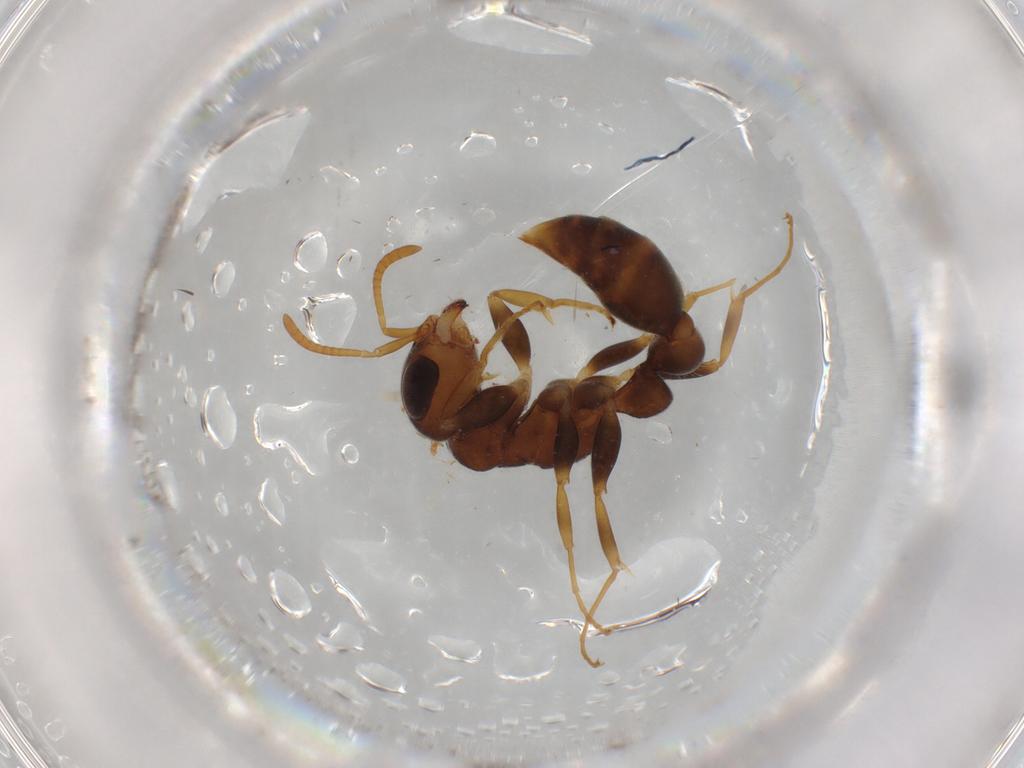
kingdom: Animalia
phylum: Arthropoda
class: Insecta
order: Hymenoptera
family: Formicidae
